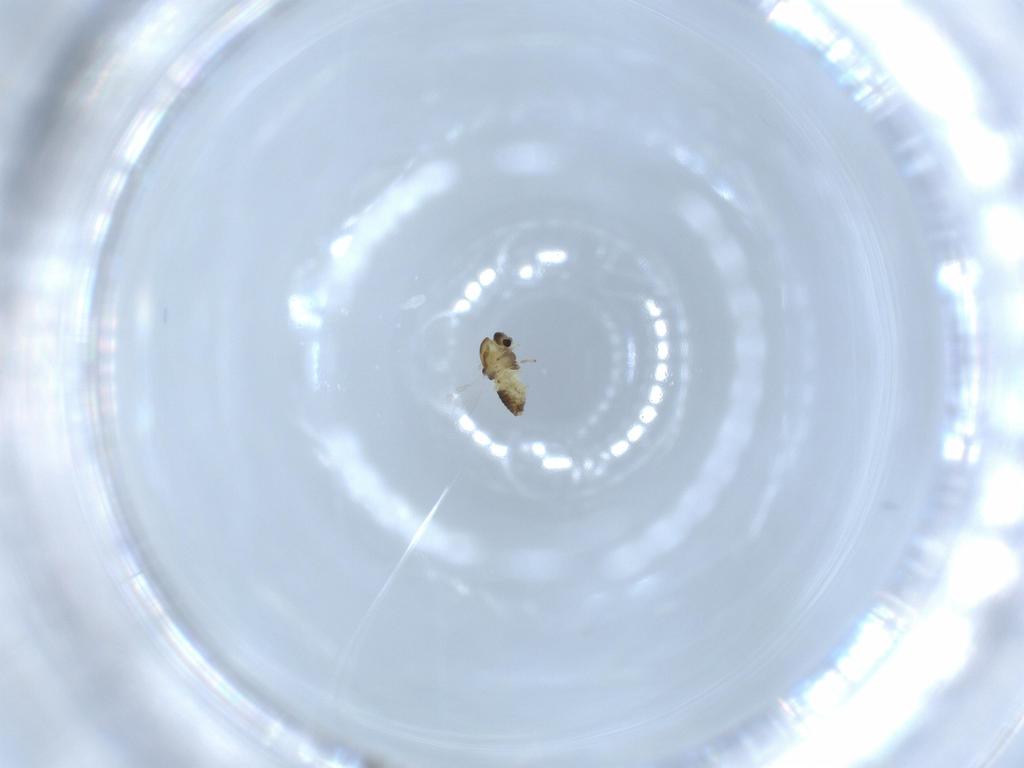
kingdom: Animalia
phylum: Arthropoda
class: Insecta
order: Diptera
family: Chironomidae
